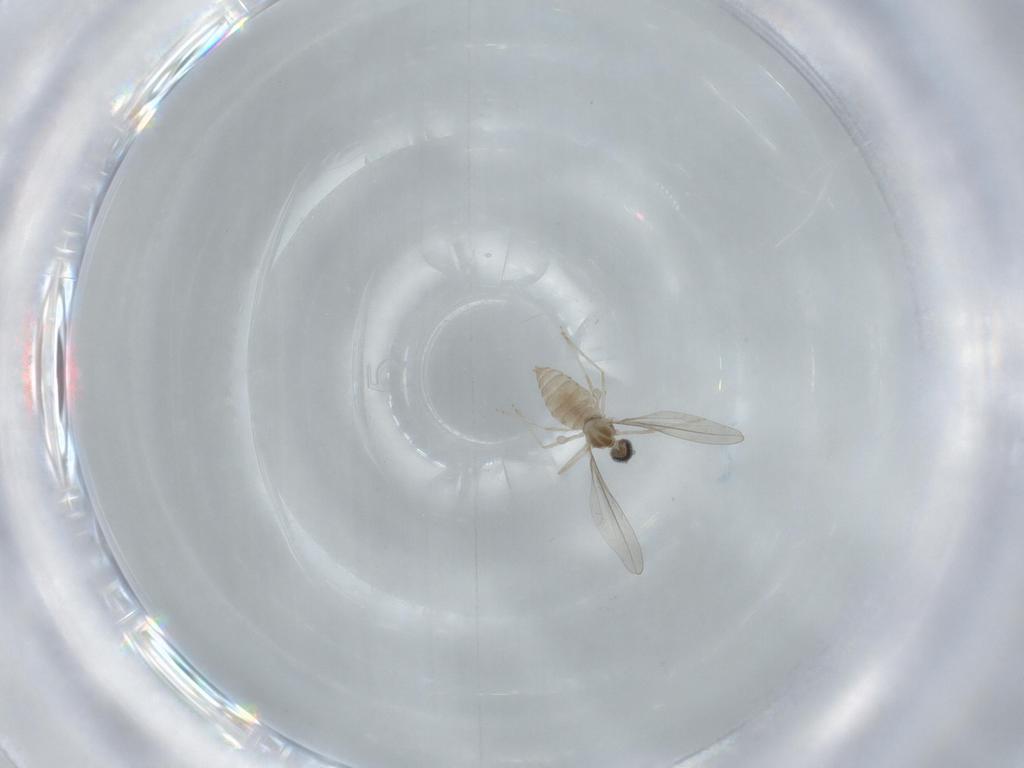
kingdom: Animalia
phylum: Arthropoda
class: Insecta
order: Diptera
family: Cecidomyiidae
